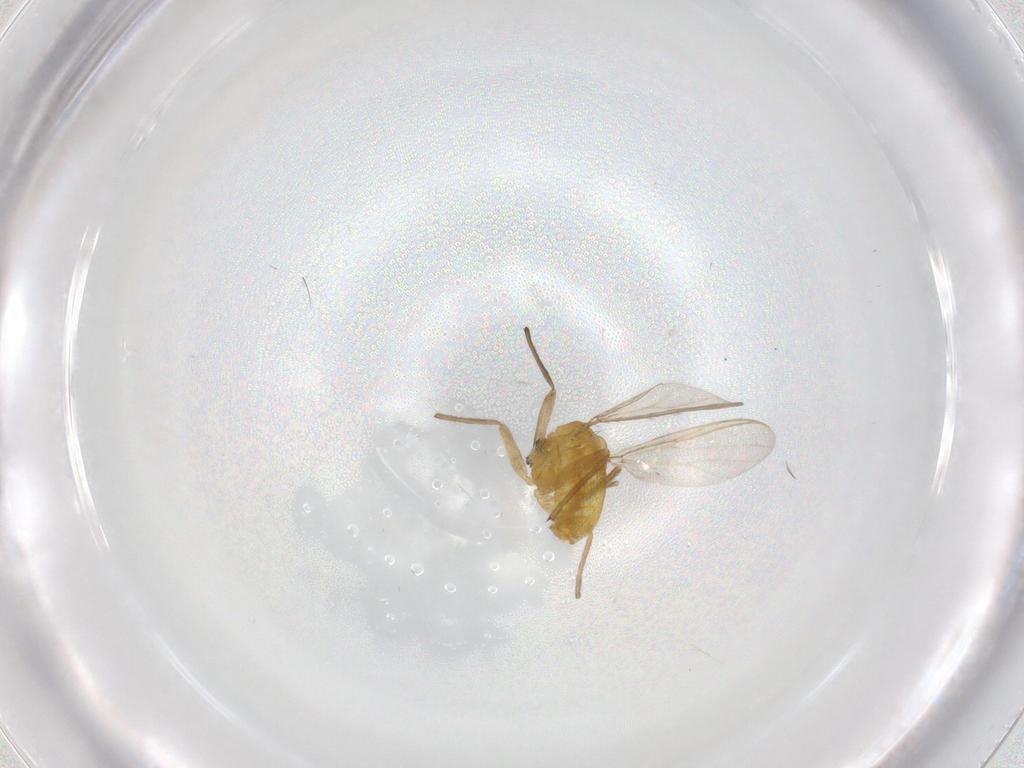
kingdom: Animalia
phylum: Arthropoda
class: Insecta
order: Diptera
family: Chironomidae
